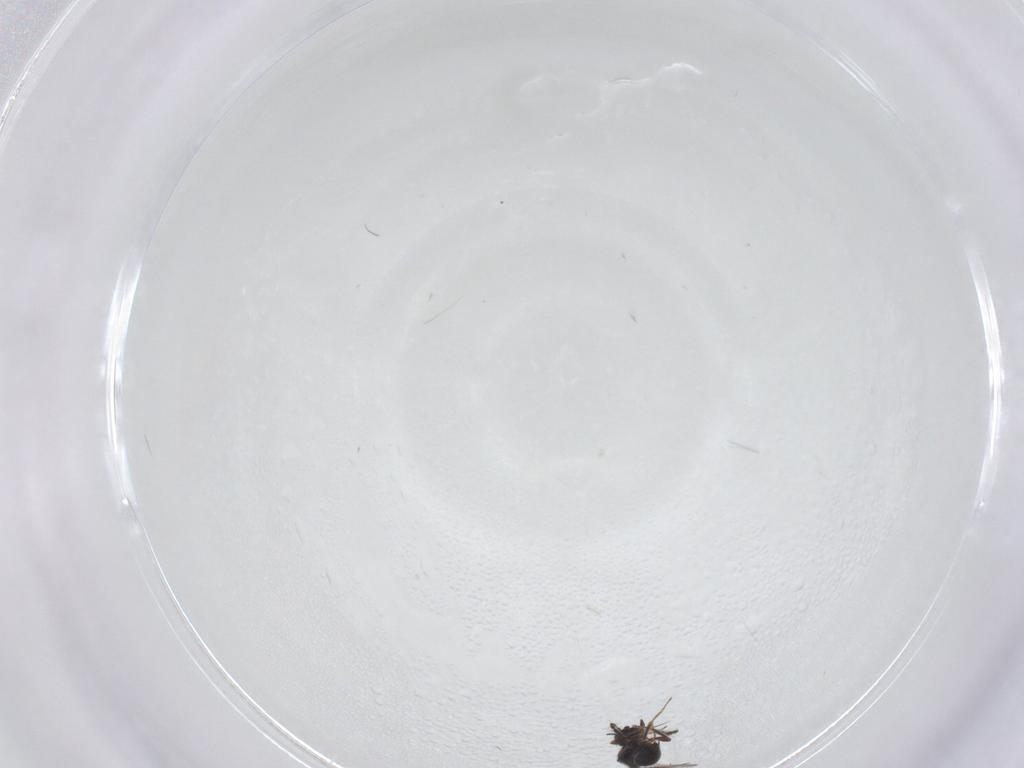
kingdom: Animalia
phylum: Arthropoda
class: Insecta
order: Hymenoptera
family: Ceraphronidae
